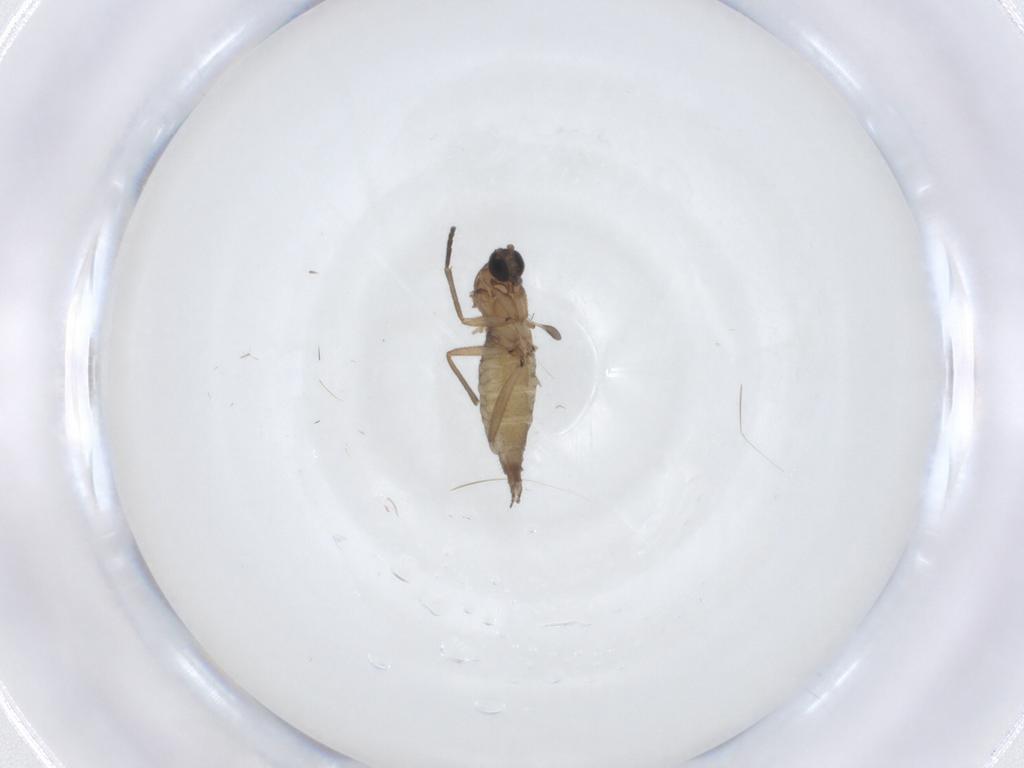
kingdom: Animalia
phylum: Arthropoda
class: Insecta
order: Diptera
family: Sciaridae
